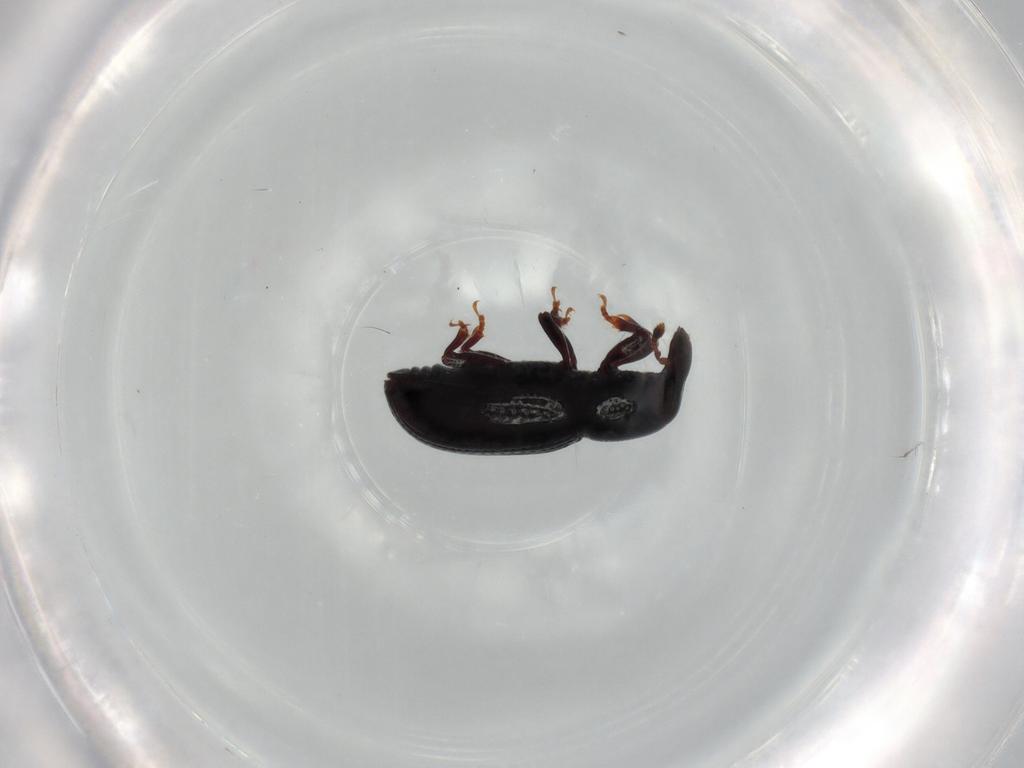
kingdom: Animalia
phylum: Arthropoda
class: Insecta
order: Coleoptera
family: Curculionidae
